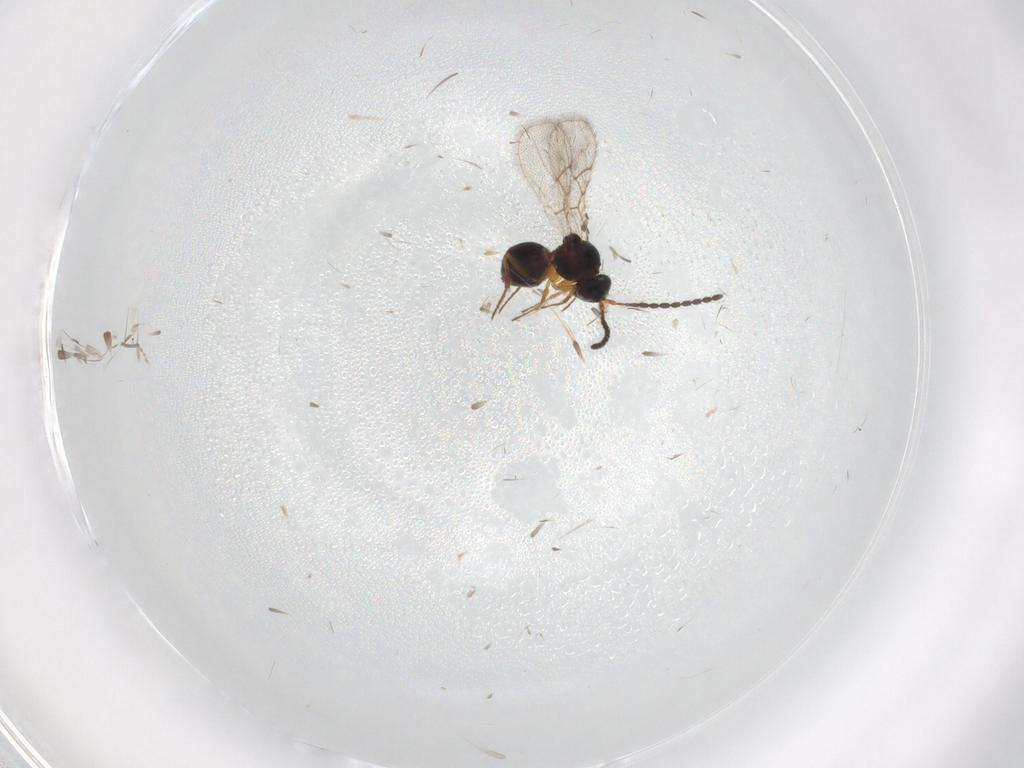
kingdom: Animalia
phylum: Arthropoda
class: Insecta
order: Hymenoptera
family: Figitidae
